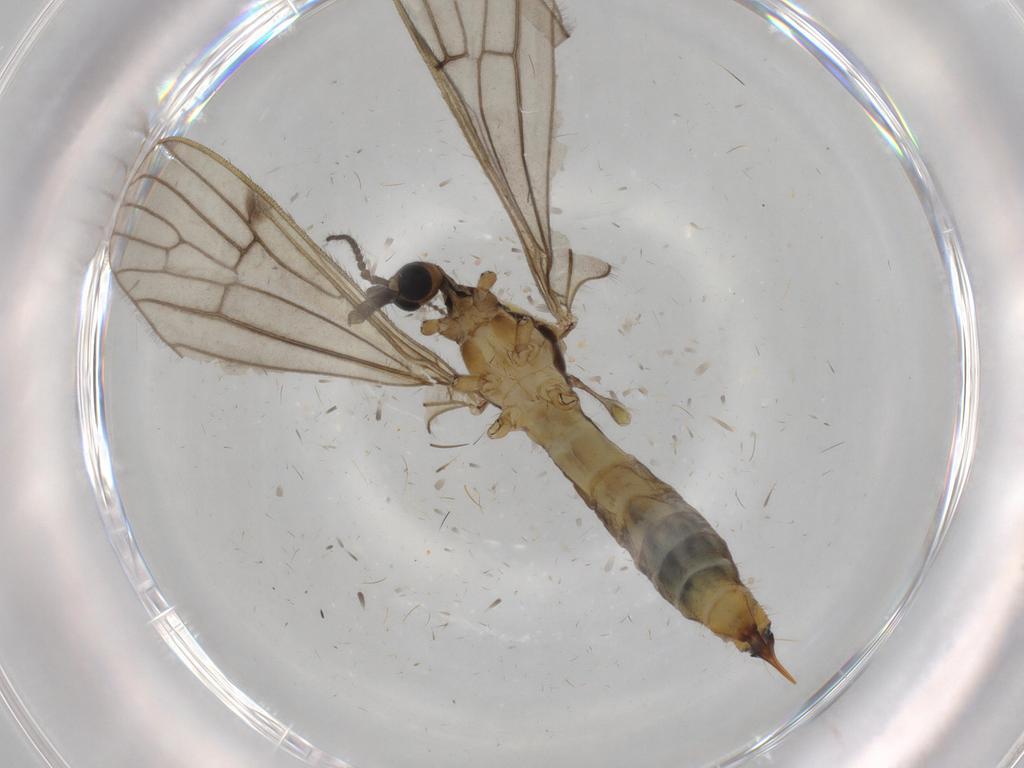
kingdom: Animalia
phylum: Arthropoda
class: Insecta
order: Diptera
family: Limoniidae
